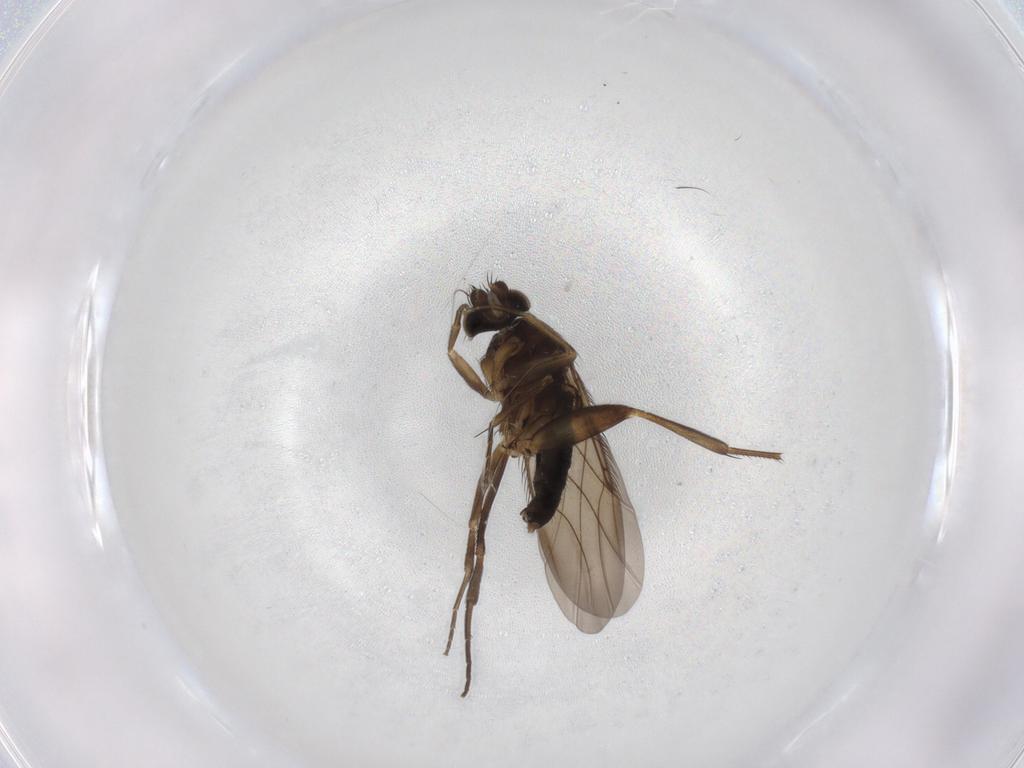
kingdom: Animalia
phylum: Arthropoda
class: Insecta
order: Diptera
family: Phoridae
